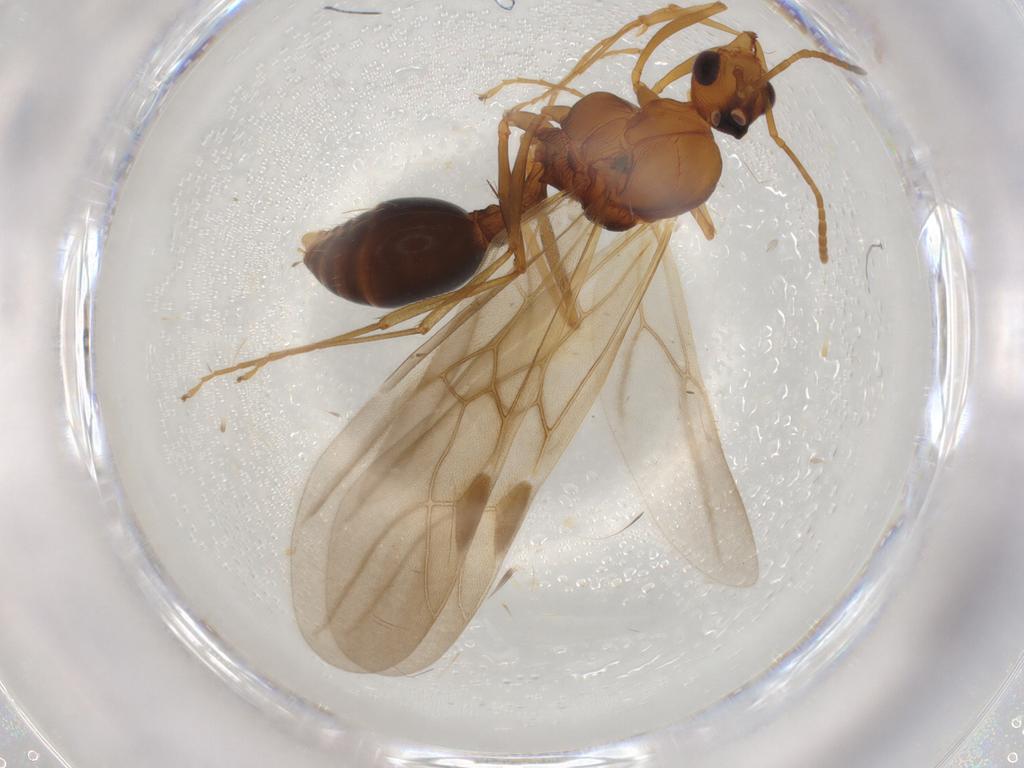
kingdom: Animalia
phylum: Arthropoda
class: Insecta
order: Hymenoptera
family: Formicidae
